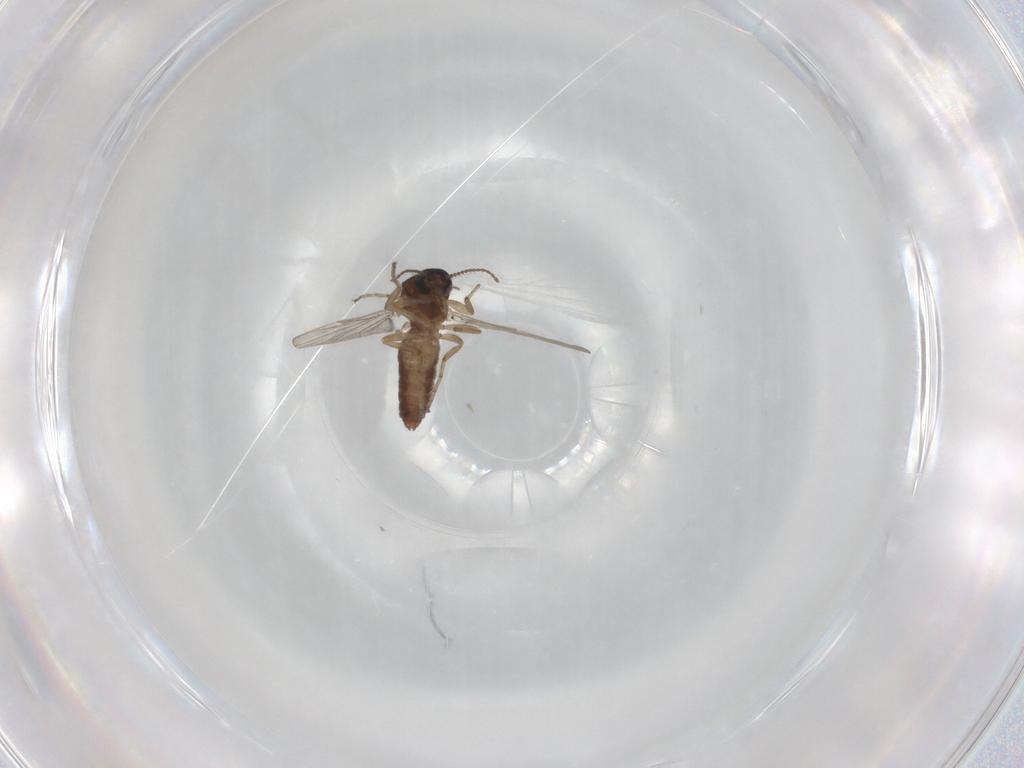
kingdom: Animalia
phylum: Arthropoda
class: Insecta
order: Diptera
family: Ceratopogonidae
